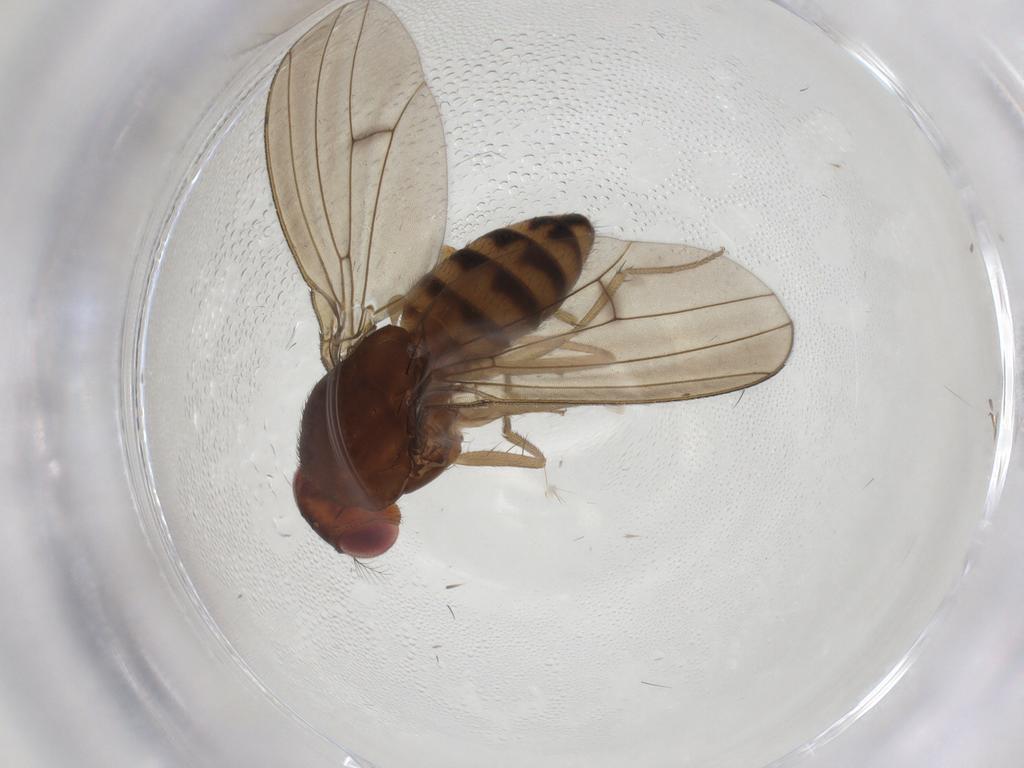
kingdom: Animalia
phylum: Arthropoda
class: Insecta
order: Diptera
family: Drosophilidae
